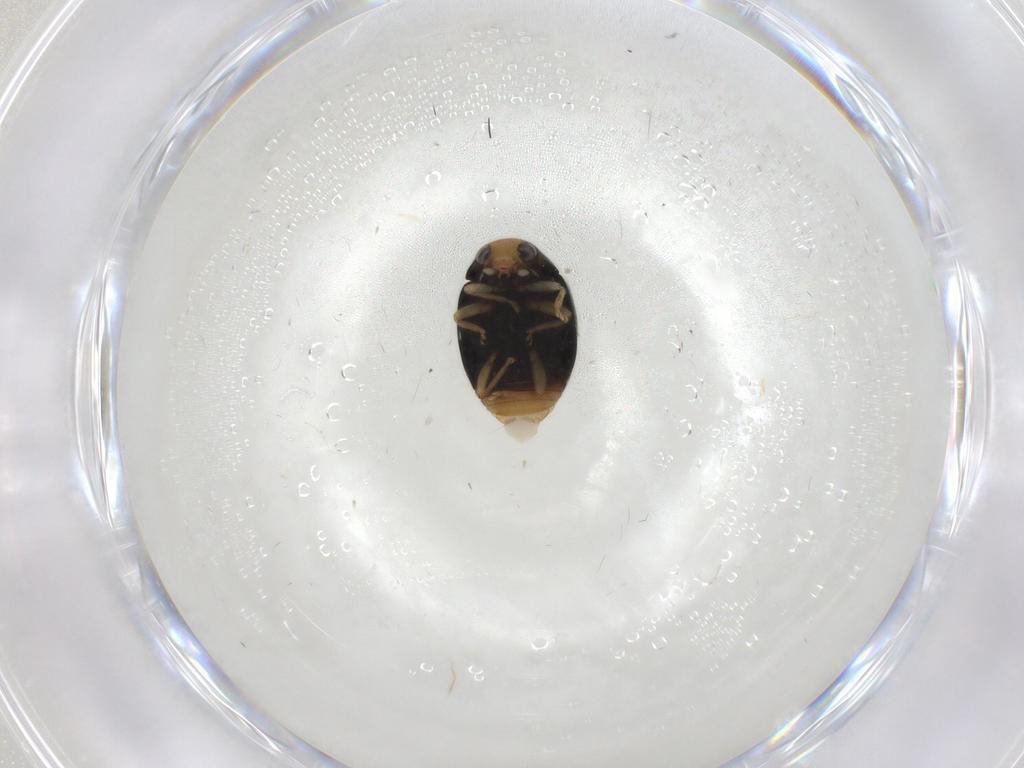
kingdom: Animalia
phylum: Arthropoda
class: Insecta
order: Coleoptera
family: Coccinellidae
